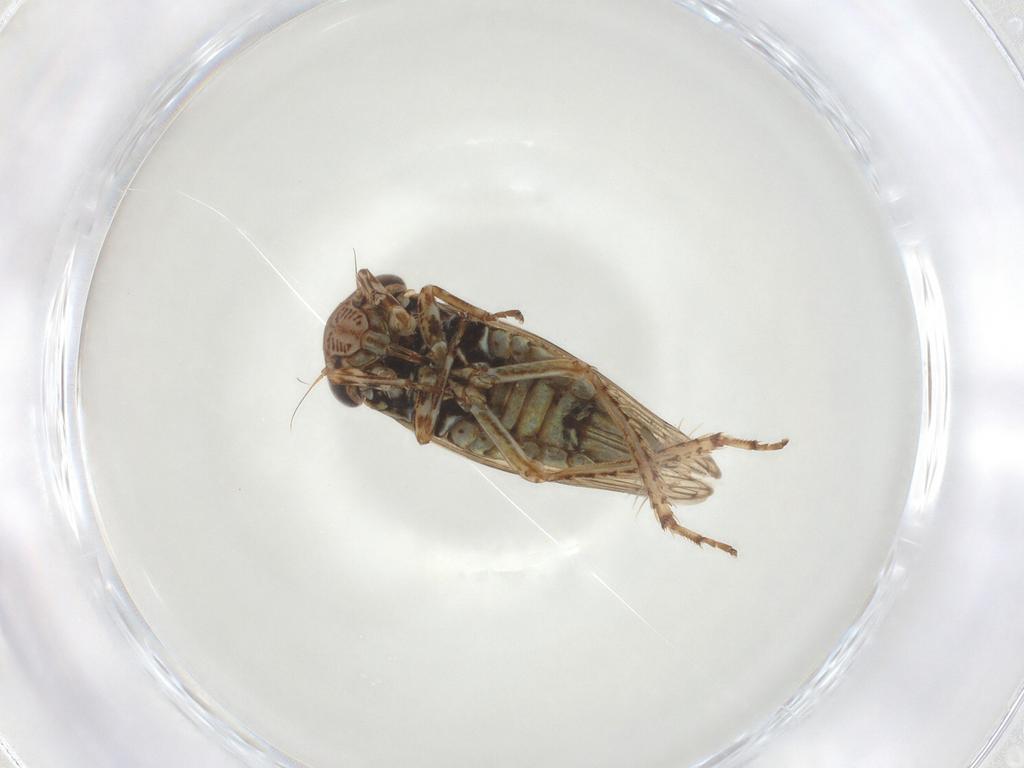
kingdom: Animalia
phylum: Arthropoda
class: Insecta
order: Hemiptera
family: Cicadellidae
